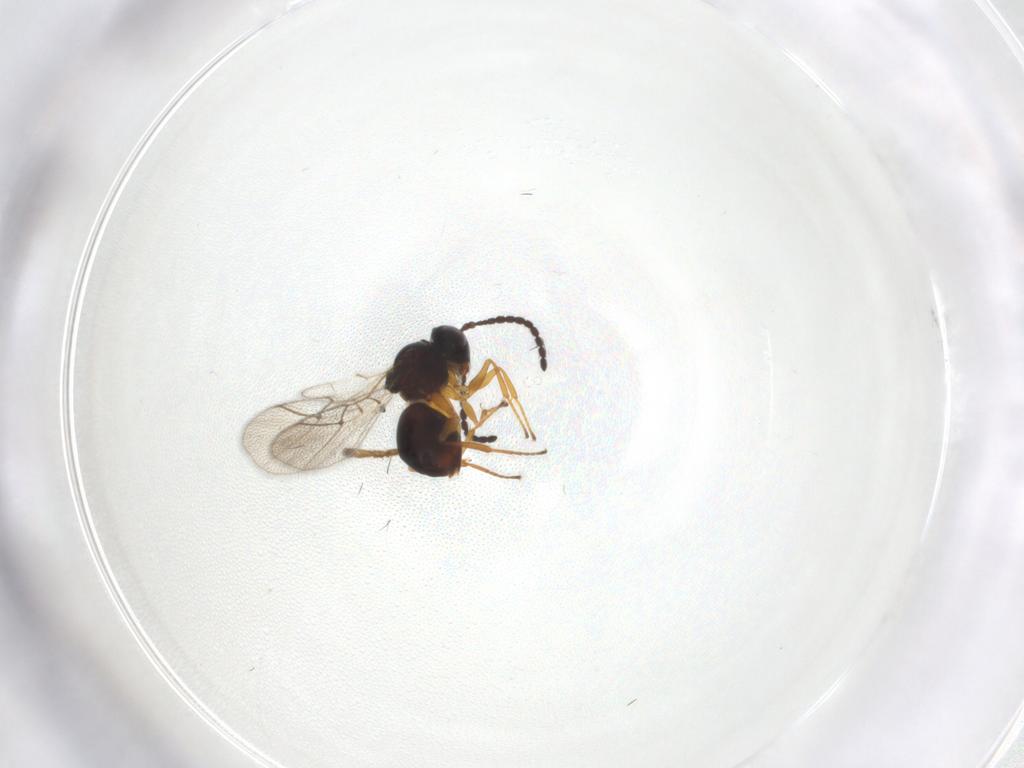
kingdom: Animalia
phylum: Arthropoda
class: Insecta
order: Hymenoptera
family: Figitidae
